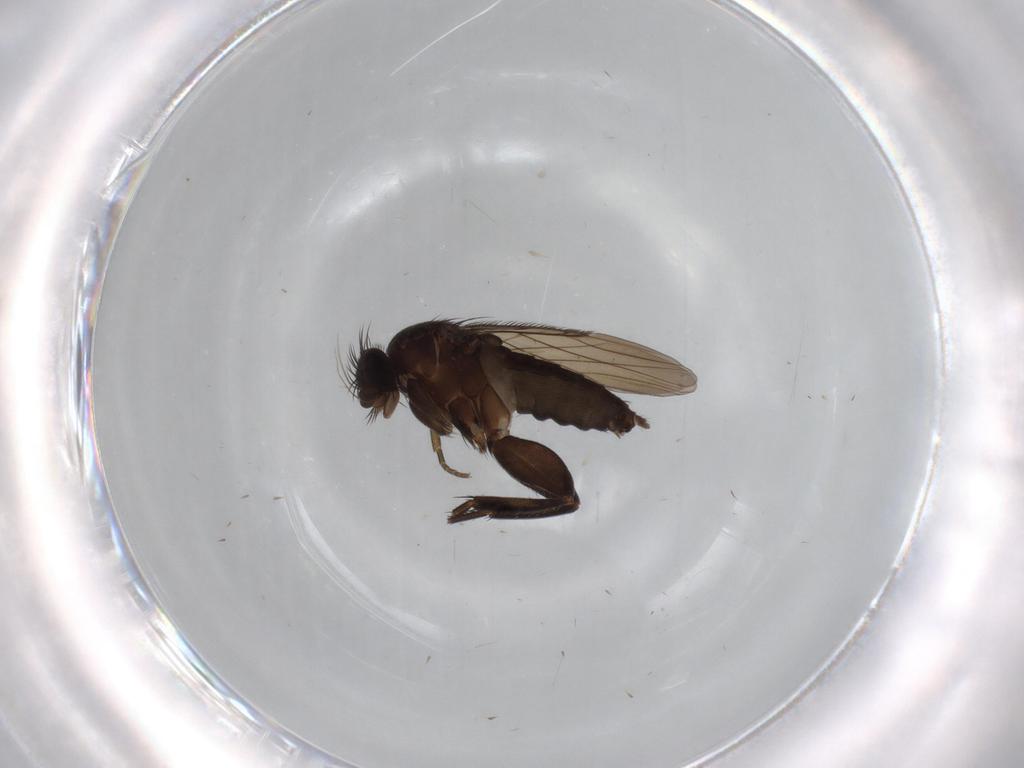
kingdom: Animalia
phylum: Arthropoda
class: Insecta
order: Diptera
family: Phoridae
